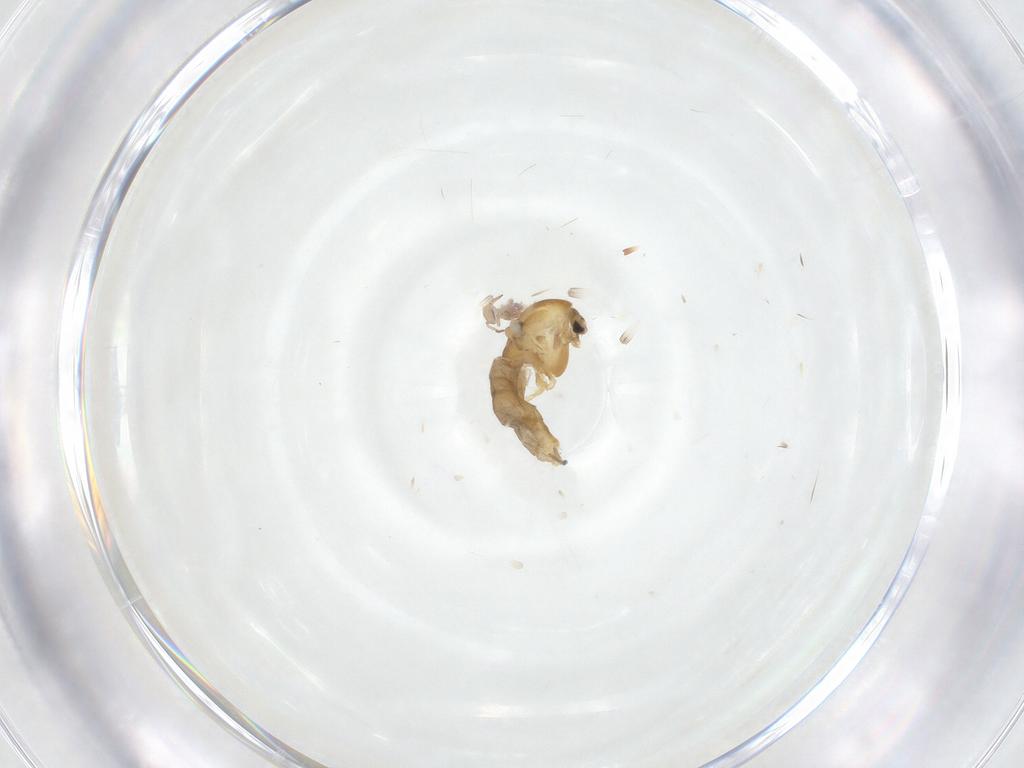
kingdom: Animalia
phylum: Arthropoda
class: Insecta
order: Diptera
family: Chironomidae
